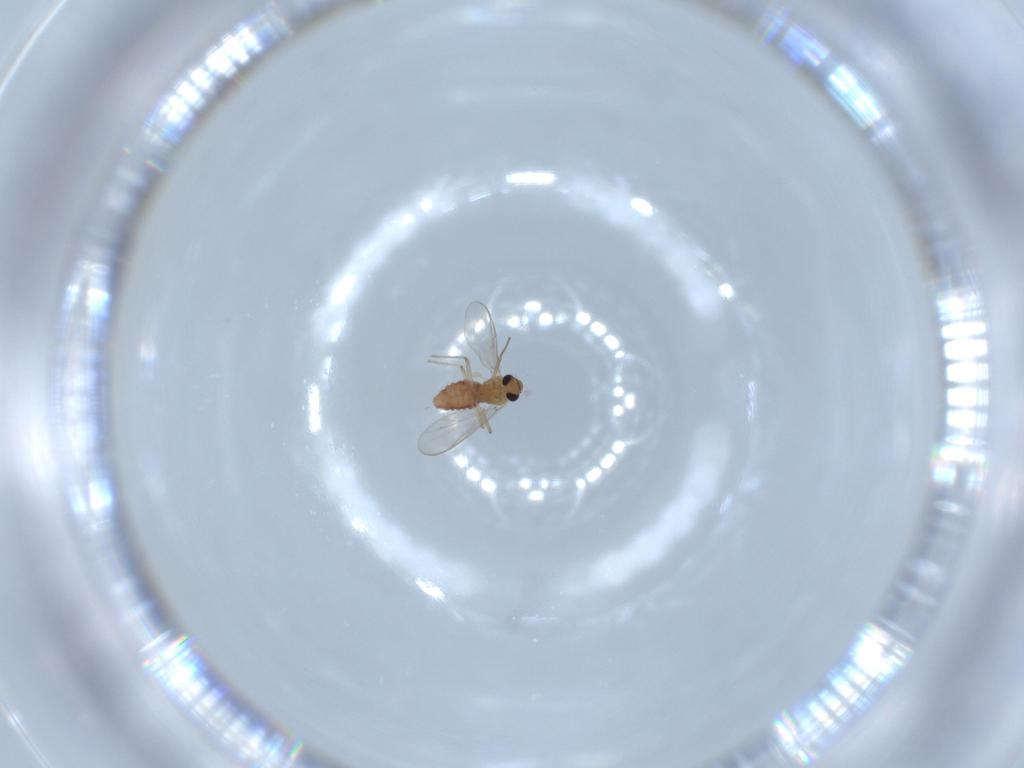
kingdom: Animalia
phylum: Arthropoda
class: Insecta
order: Diptera
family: Chironomidae
